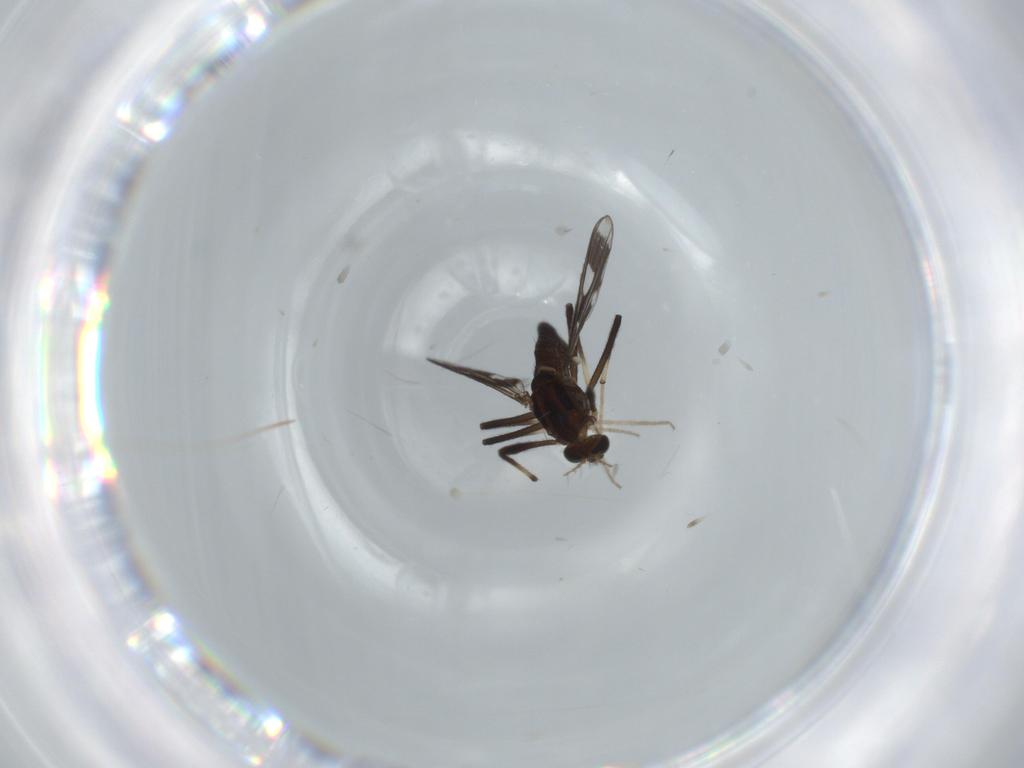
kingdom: Animalia
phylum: Arthropoda
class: Insecta
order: Diptera
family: Chironomidae
